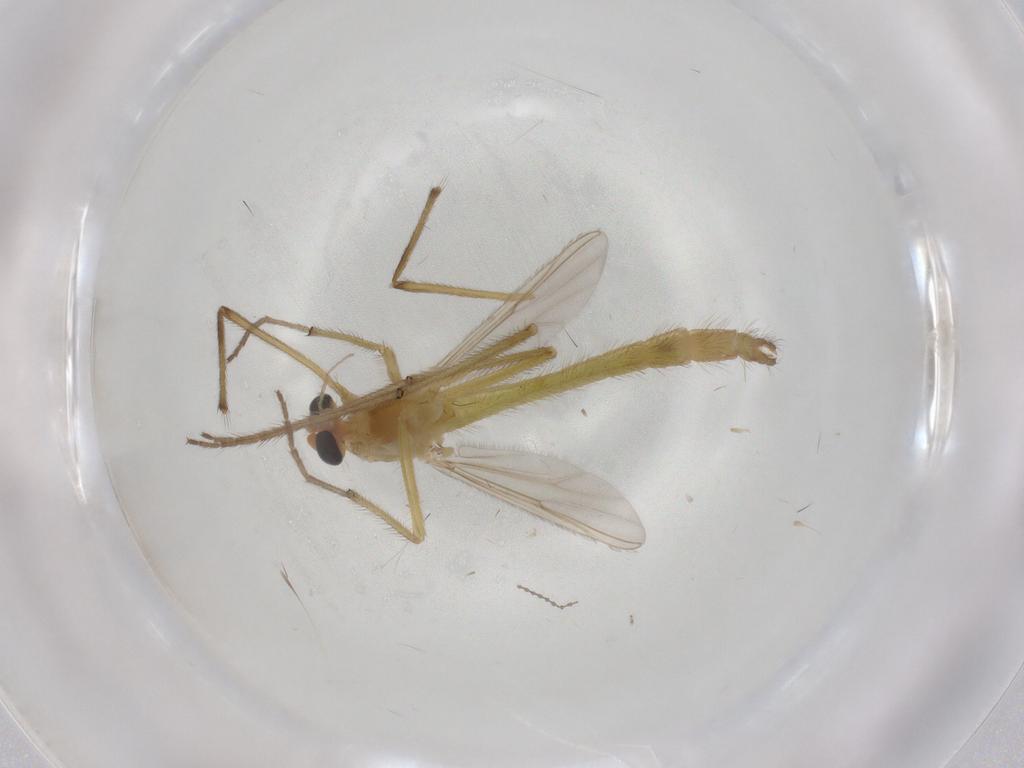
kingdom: Animalia
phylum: Arthropoda
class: Insecta
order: Diptera
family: Chironomidae
